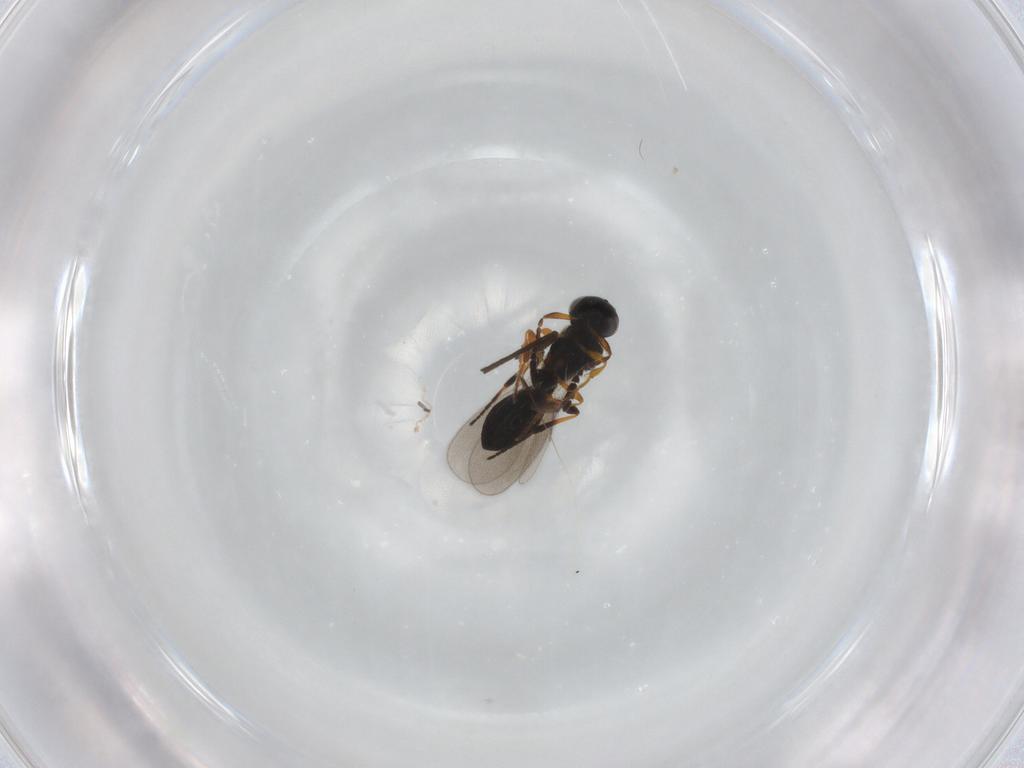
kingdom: Animalia
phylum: Arthropoda
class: Insecta
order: Hymenoptera
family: Platygastridae
